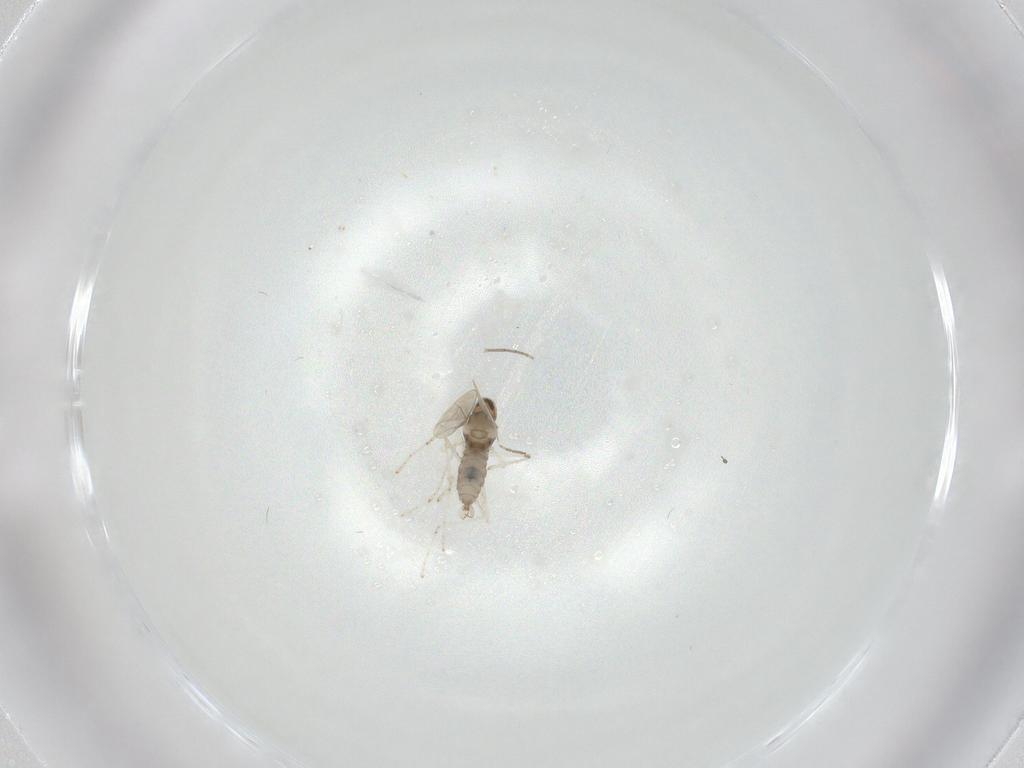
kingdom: Animalia
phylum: Arthropoda
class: Insecta
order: Diptera
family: Cecidomyiidae
